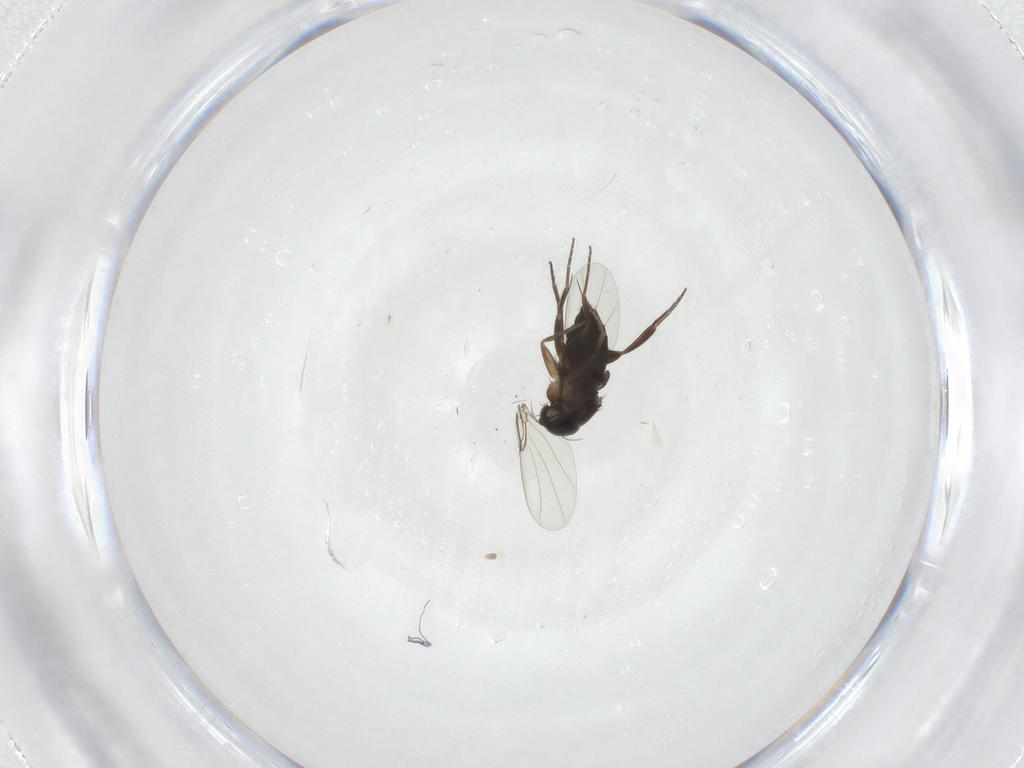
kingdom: Animalia
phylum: Arthropoda
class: Insecta
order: Diptera
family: Phoridae
